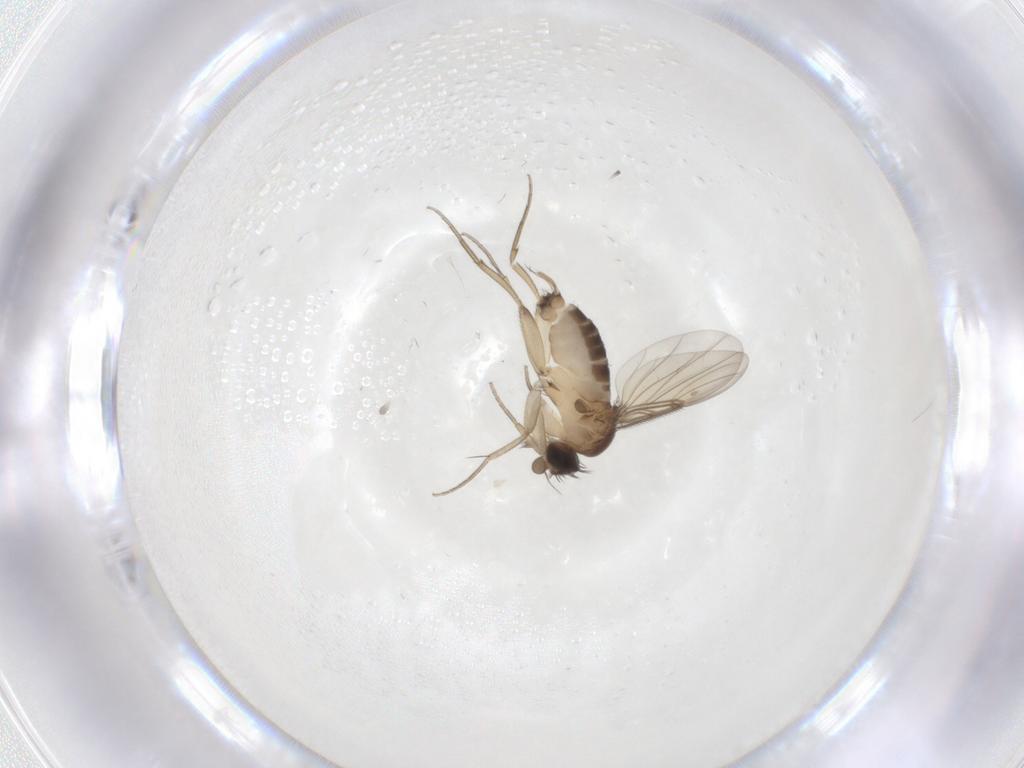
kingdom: Animalia
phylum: Arthropoda
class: Insecta
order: Diptera
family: Phoridae
